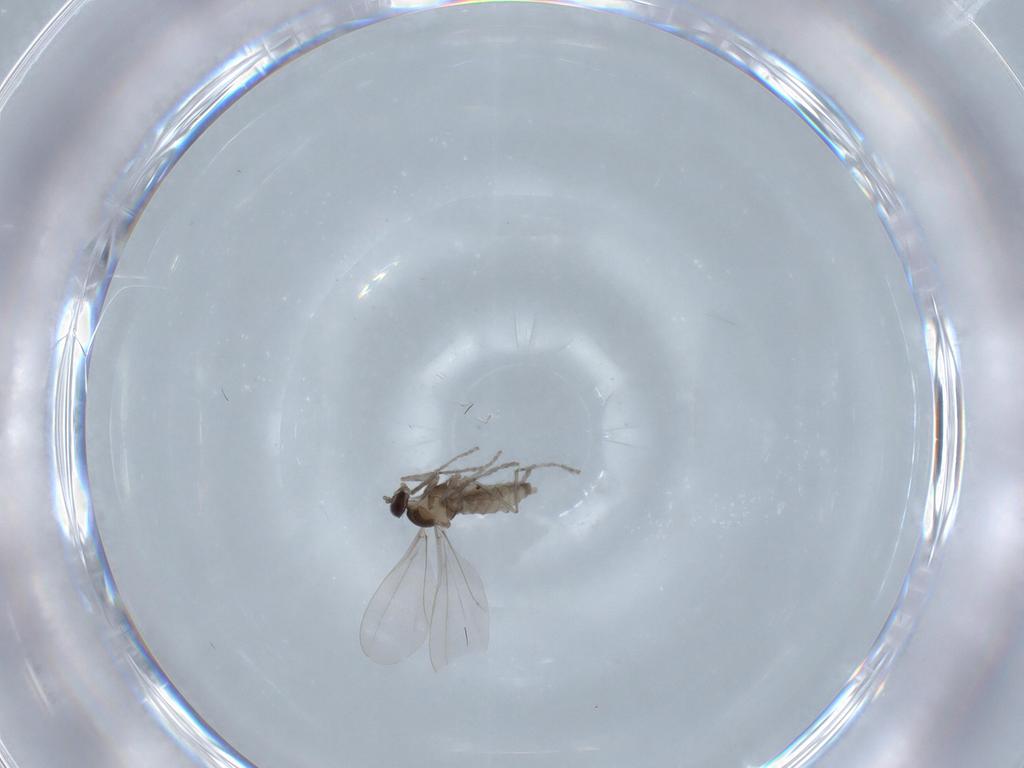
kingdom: Animalia
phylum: Arthropoda
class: Insecta
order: Diptera
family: Cecidomyiidae
